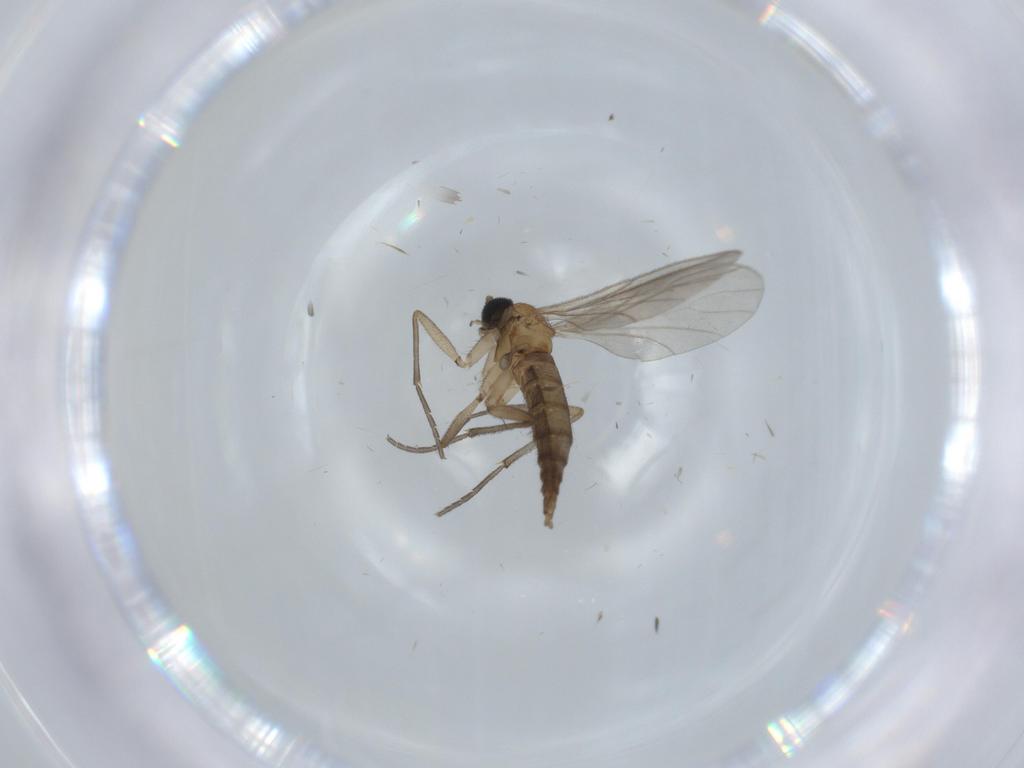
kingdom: Animalia
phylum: Arthropoda
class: Insecta
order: Diptera
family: Sciaridae
